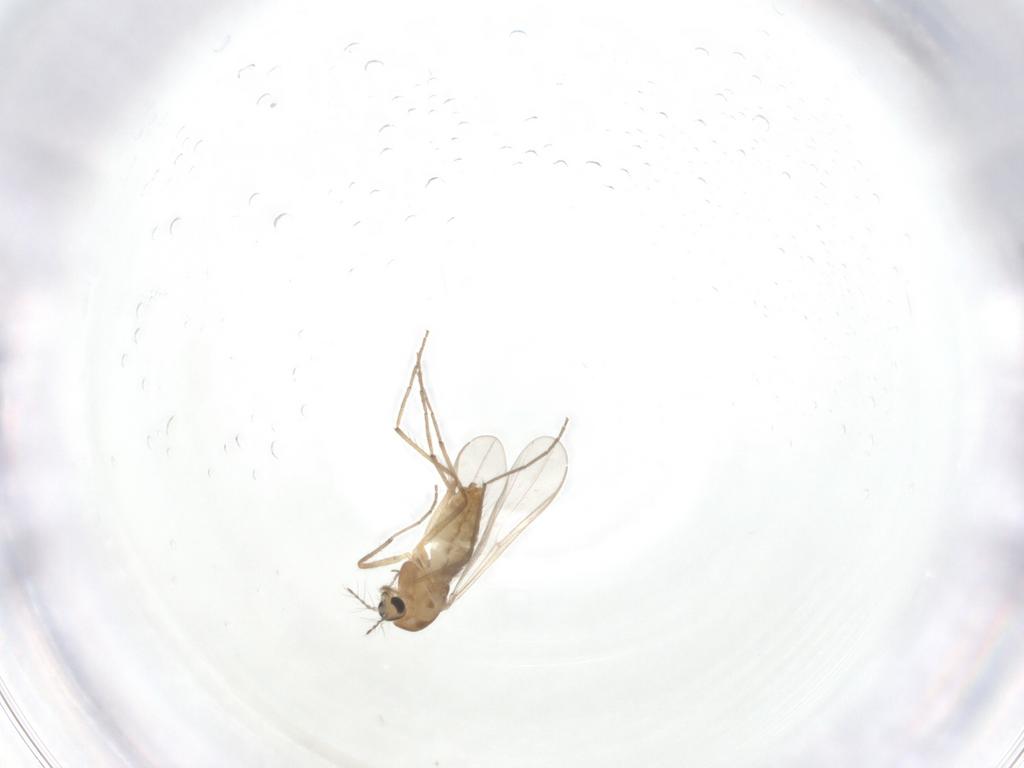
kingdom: Animalia
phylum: Arthropoda
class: Insecta
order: Diptera
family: Chironomidae
